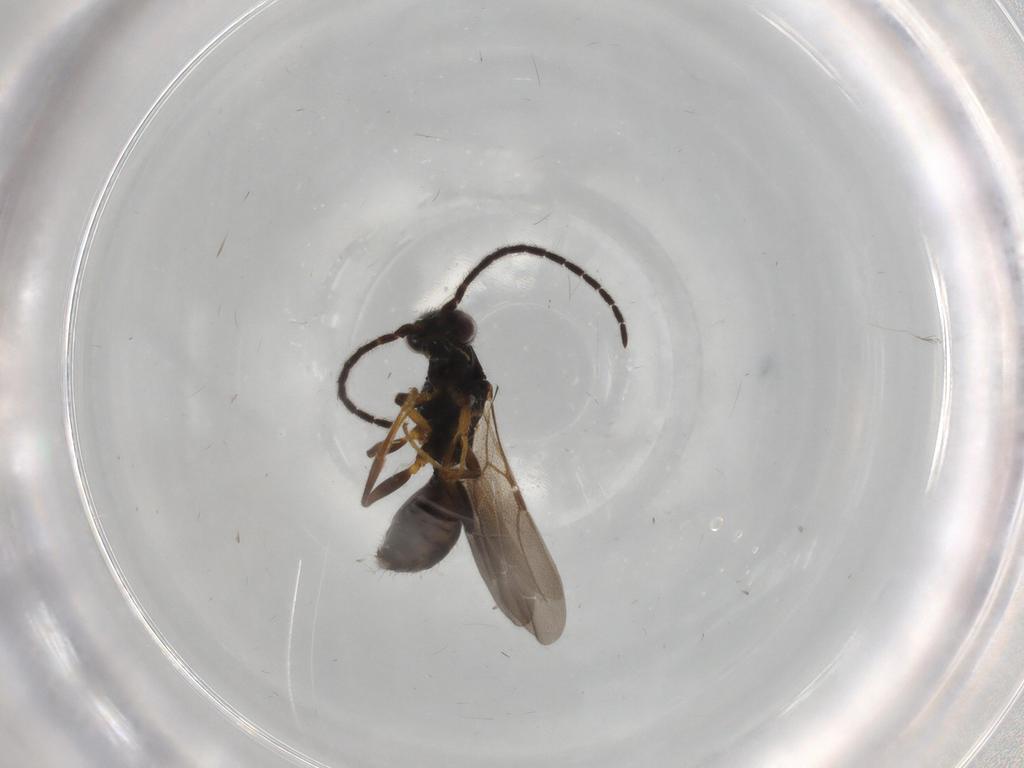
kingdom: Animalia
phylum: Arthropoda
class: Insecta
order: Hymenoptera
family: Bethylidae
